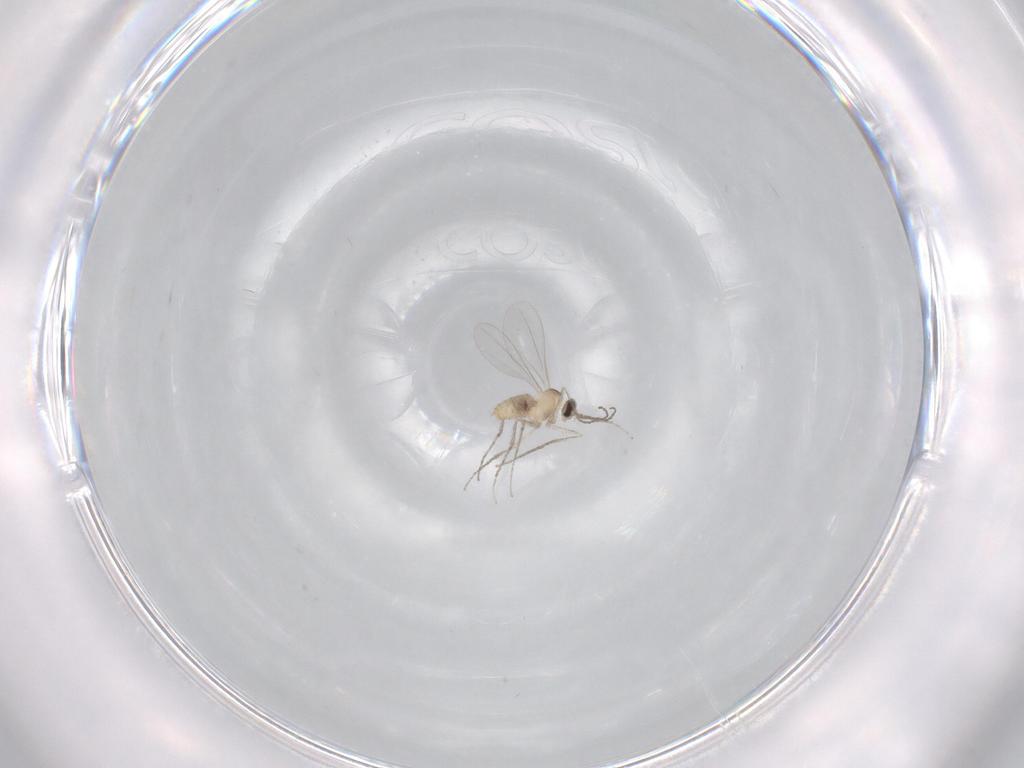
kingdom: Animalia
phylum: Arthropoda
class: Insecta
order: Diptera
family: Cecidomyiidae
